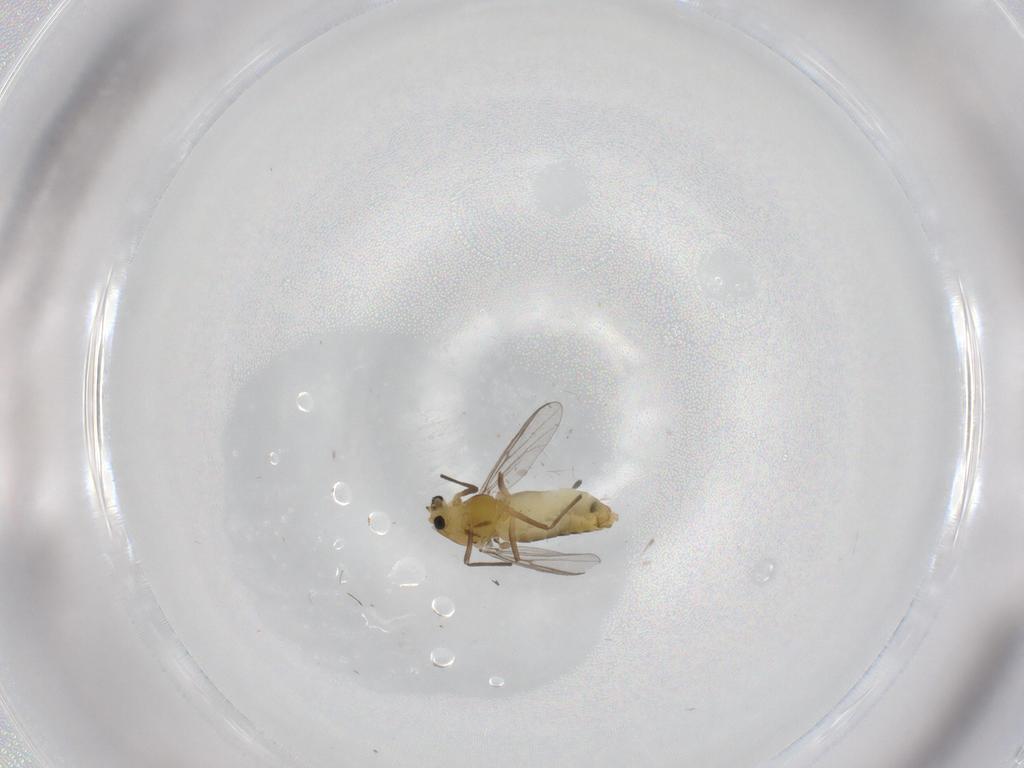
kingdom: Animalia
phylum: Arthropoda
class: Insecta
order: Diptera
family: Chironomidae
